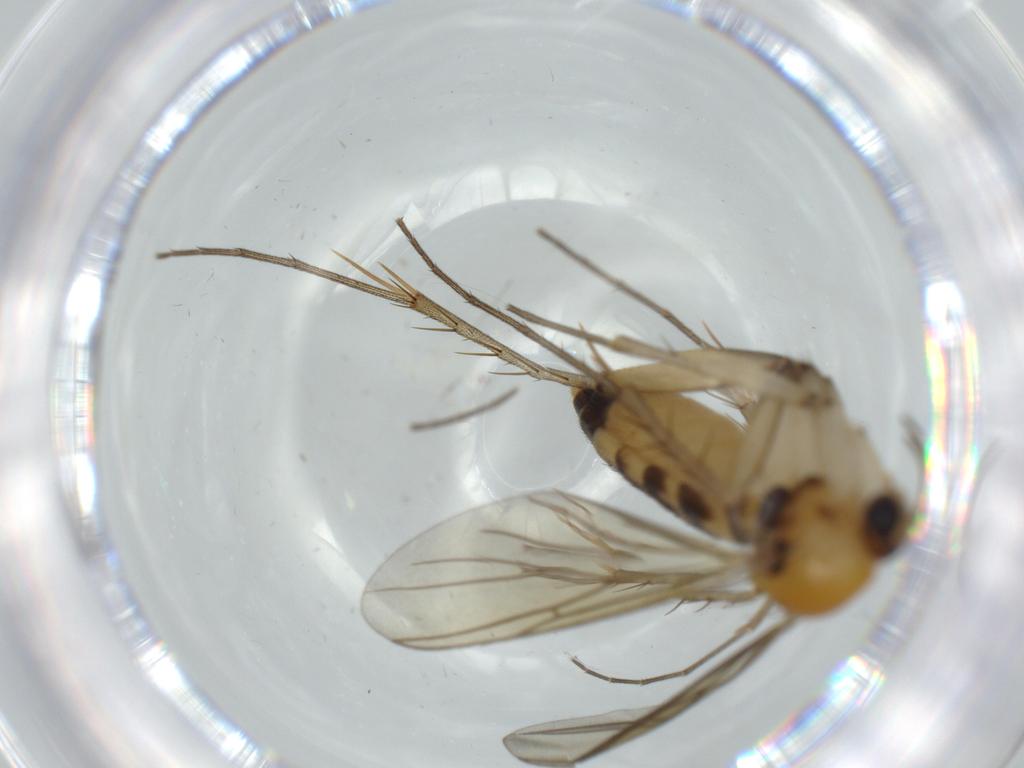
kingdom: Animalia
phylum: Arthropoda
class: Insecta
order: Diptera
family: Mycetophilidae
